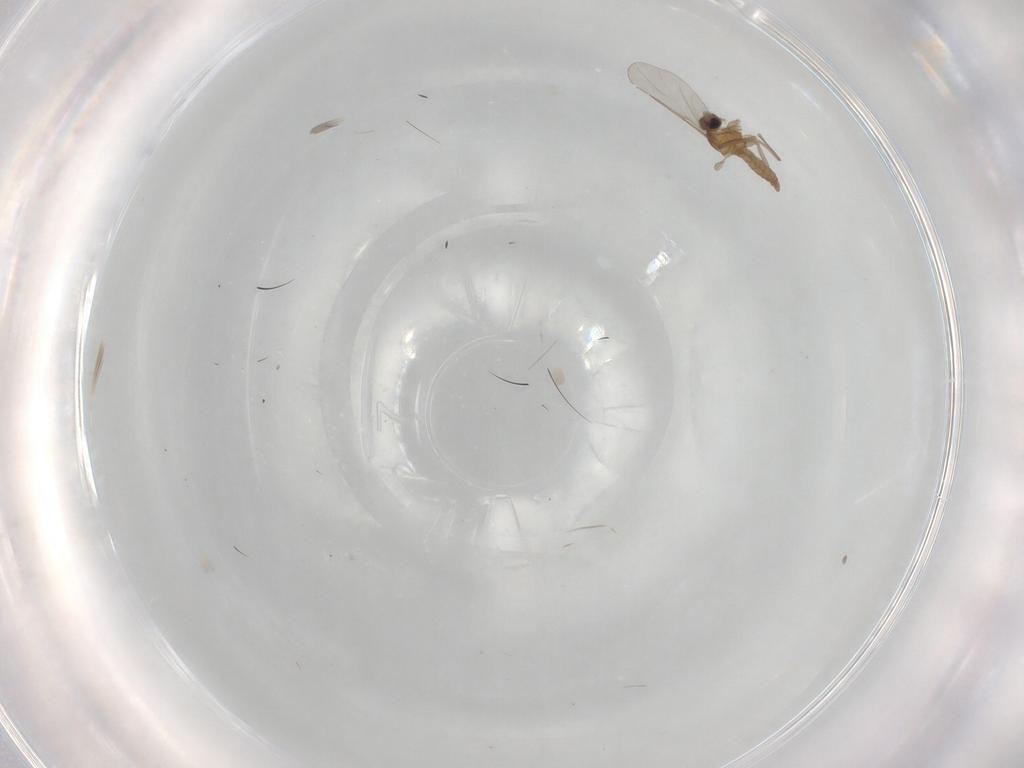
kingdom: Animalia
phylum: Arthropoda
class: Insecta
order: Diptera
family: Cecidomyiidae
